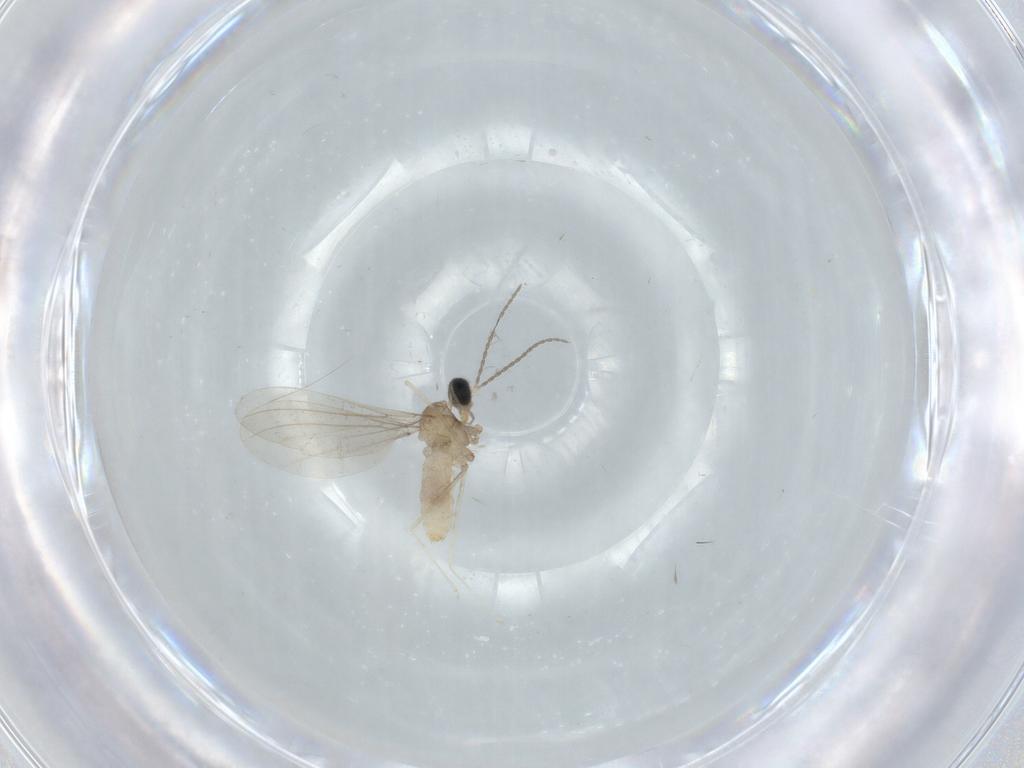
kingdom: Animalia
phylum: Arthropoda
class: Insecta
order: Diptera
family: Cecidomyiidae
